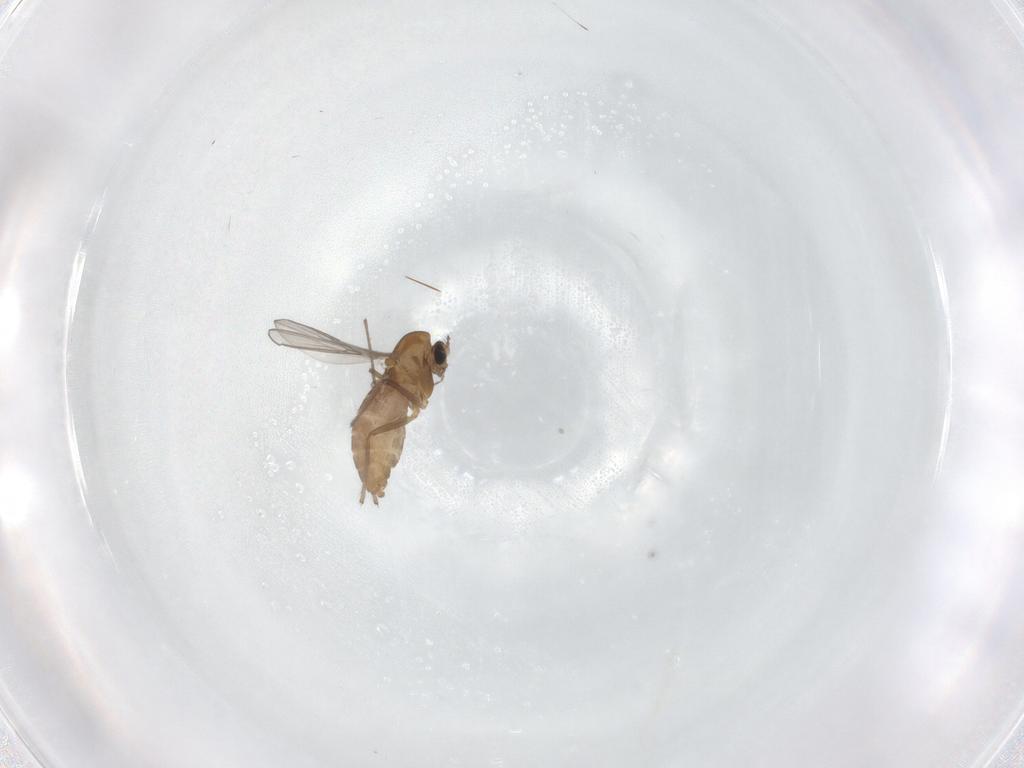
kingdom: Animalia
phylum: Arthropoda
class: Insecta
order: Diptera
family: Chironomidae
